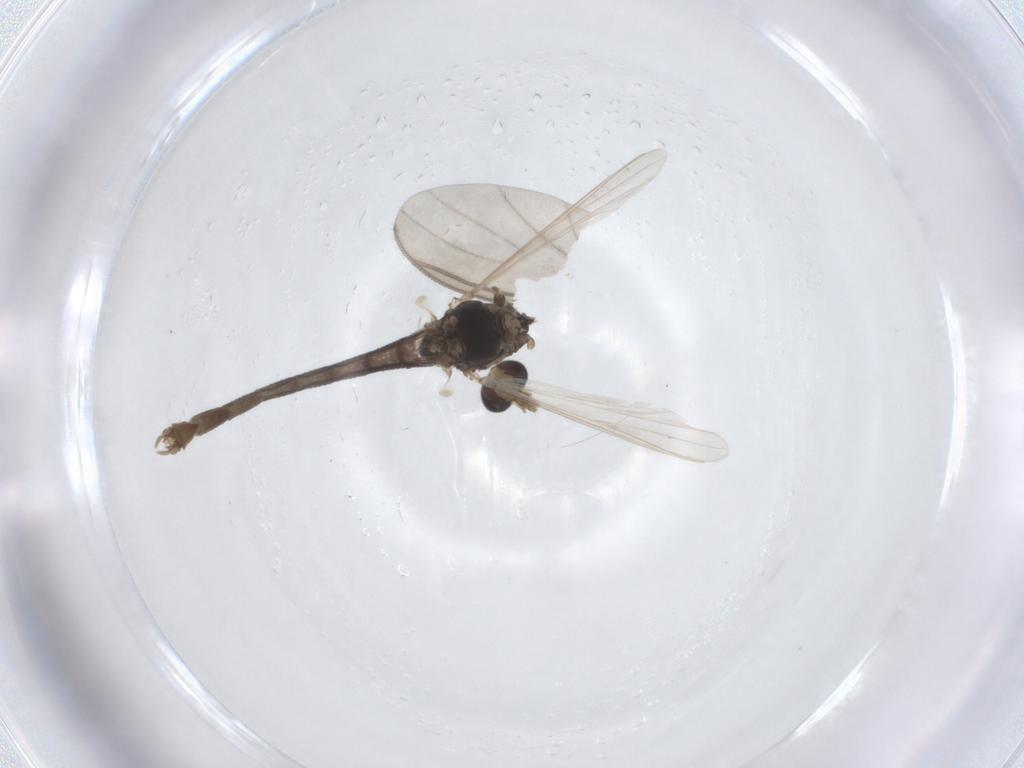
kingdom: Animalia
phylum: Arthropoda
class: Insecta
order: Diptera
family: Chironomidae
